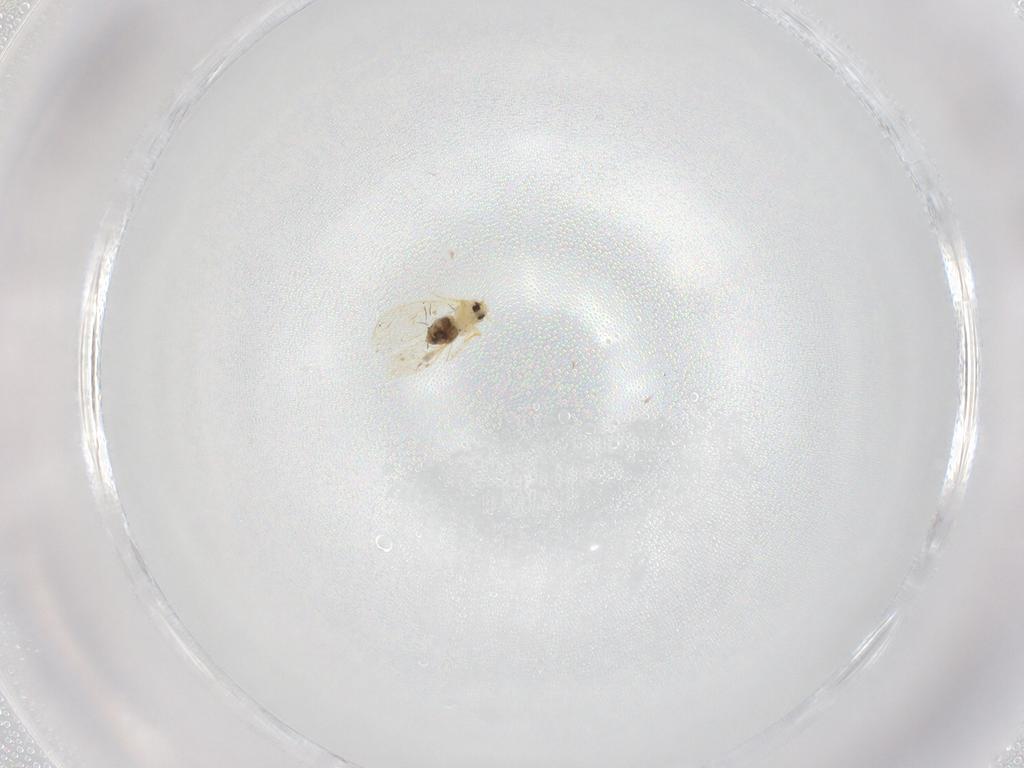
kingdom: Animalia
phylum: Arthropoda
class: Insecta
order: Hemiptera
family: Aleyrodidae
